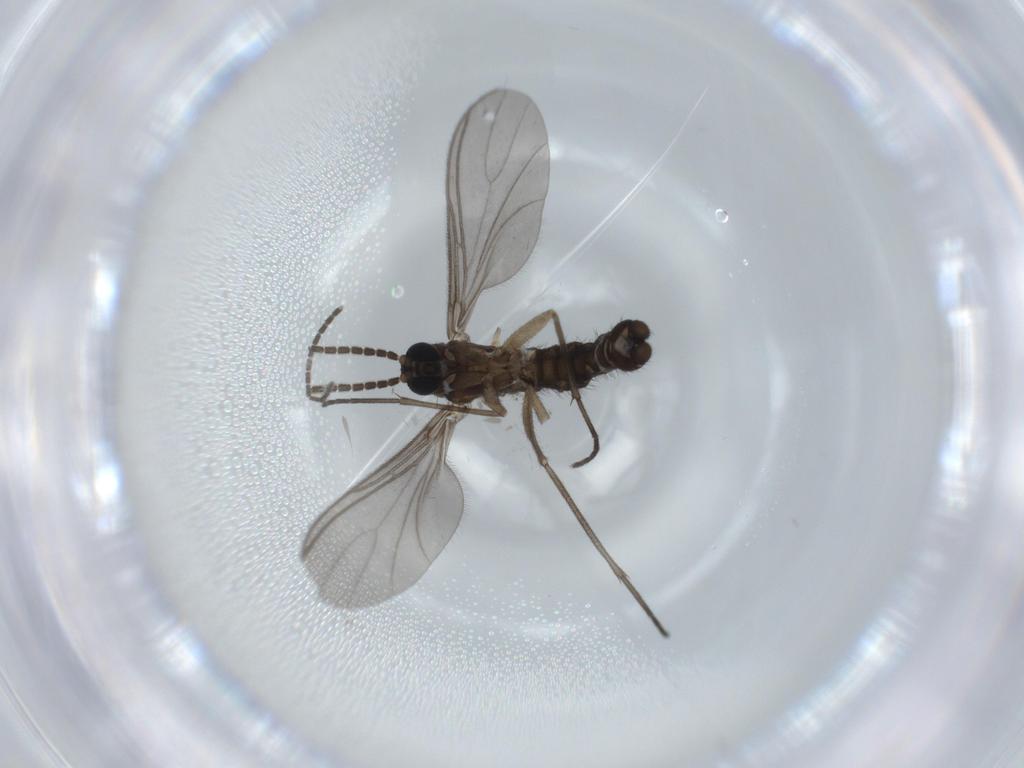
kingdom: Animalia
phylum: Arthropoda
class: Insecta
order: Diptera
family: Sciaridae
